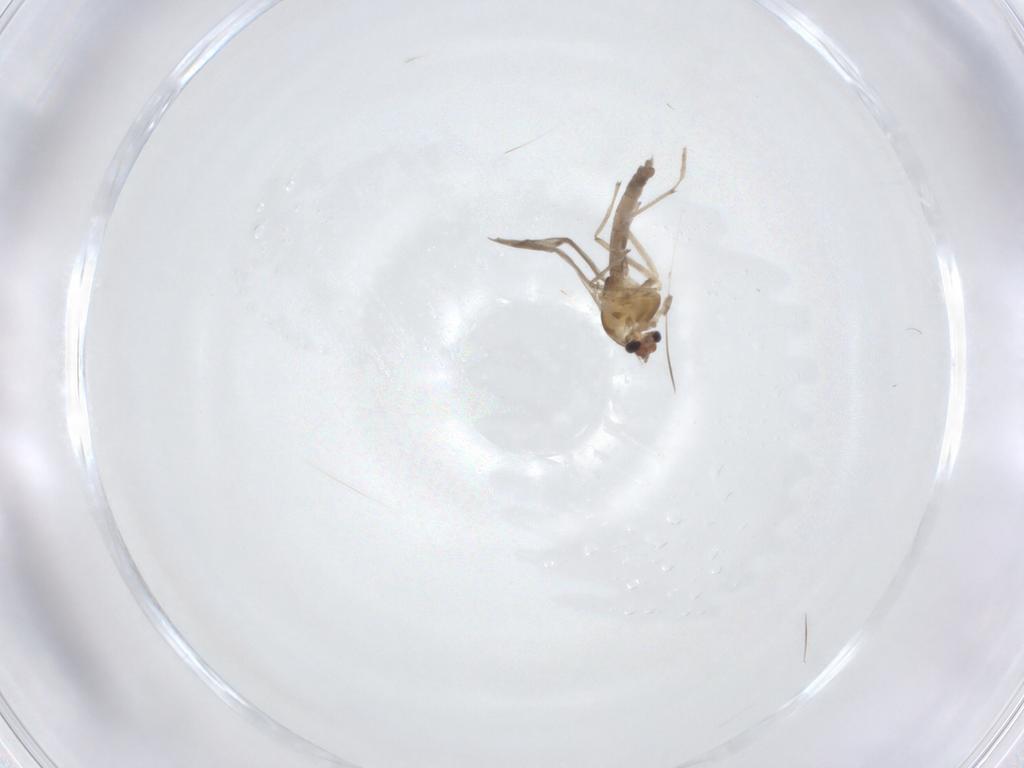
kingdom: Animalia
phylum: Arthropoda
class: Insecta
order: Diptera
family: Chironomidae
